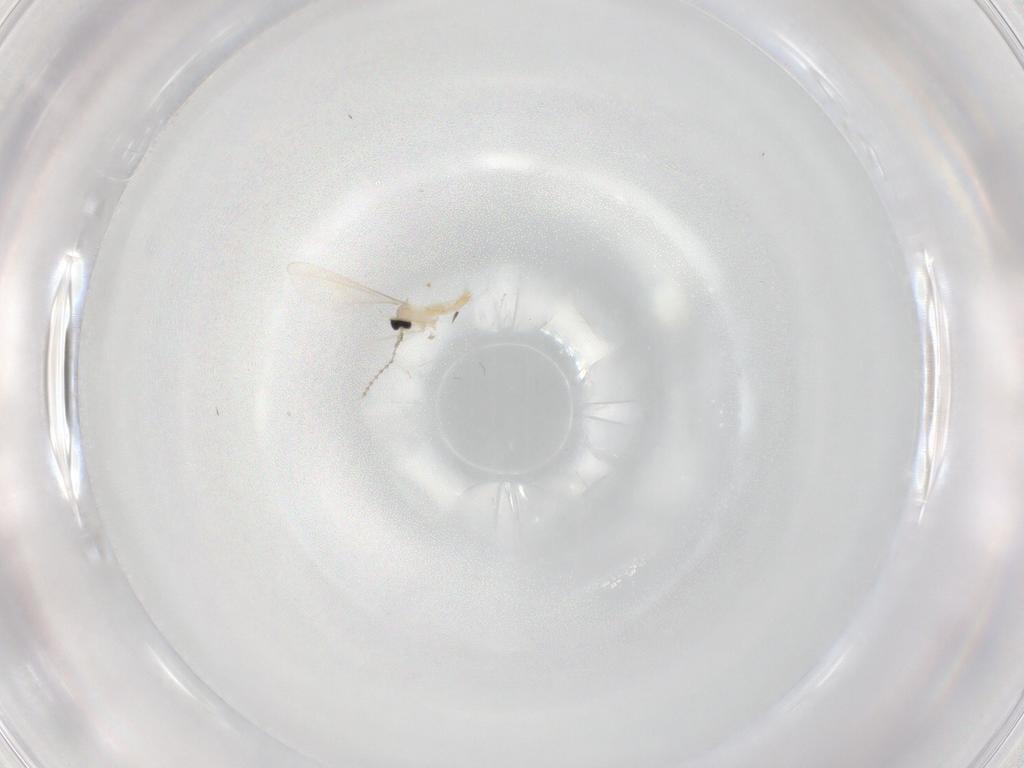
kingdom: Animalia
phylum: Arthropoda
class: Insecta
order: Diptera
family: Cecidomyiidae
